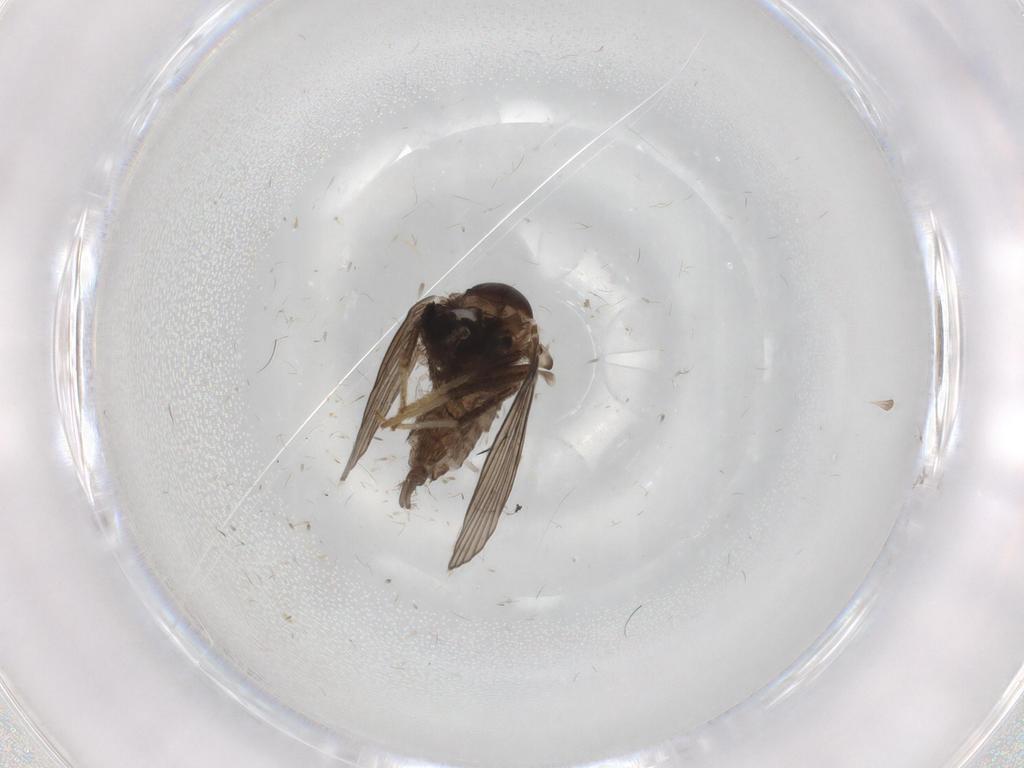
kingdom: Animalia
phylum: Arthropoda
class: Insecta
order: Diptera
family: Psychodidae
